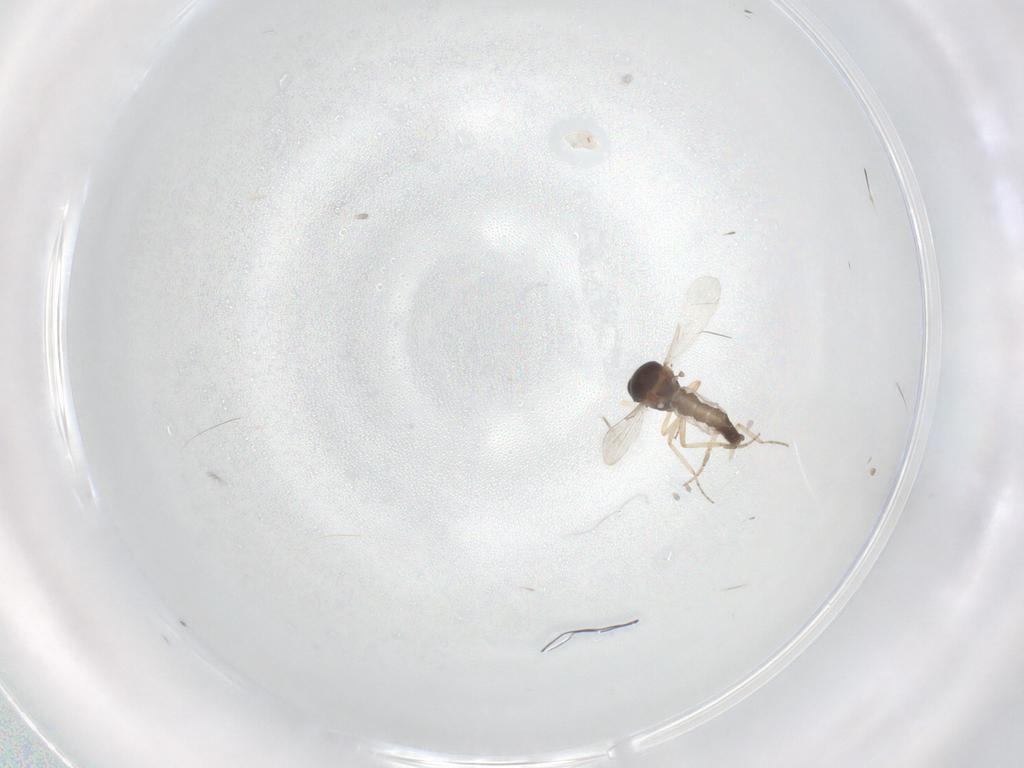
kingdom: Animalia
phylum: Arthropoda
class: Insecta
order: Diptera
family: Ceratopogonidae
